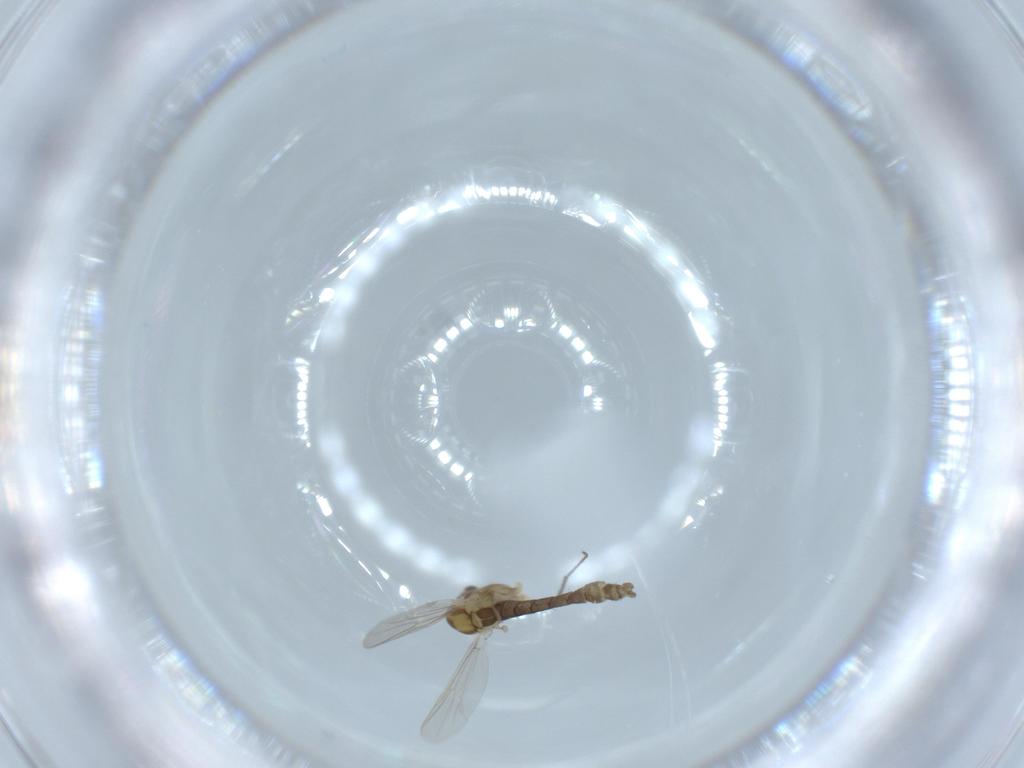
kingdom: Animalia
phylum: Arthropoda
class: Insecta
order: Diptera
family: Chironomidae
